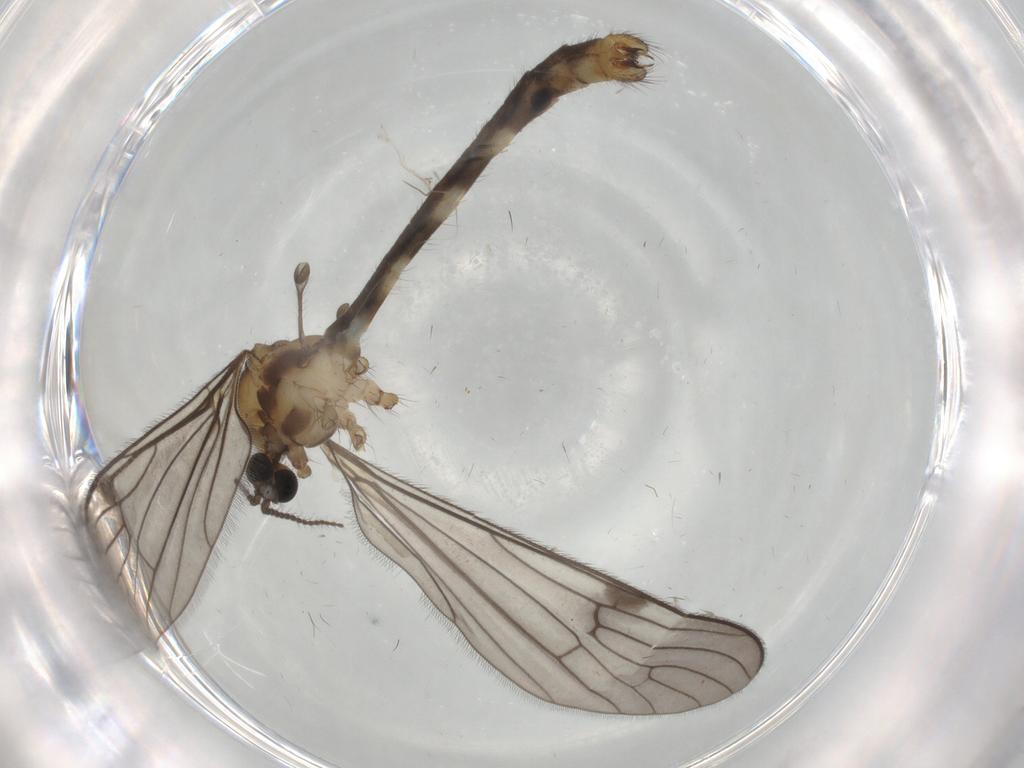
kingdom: Animalia
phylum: Arthropoda
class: Insecta
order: Diptera
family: Limoniidae
